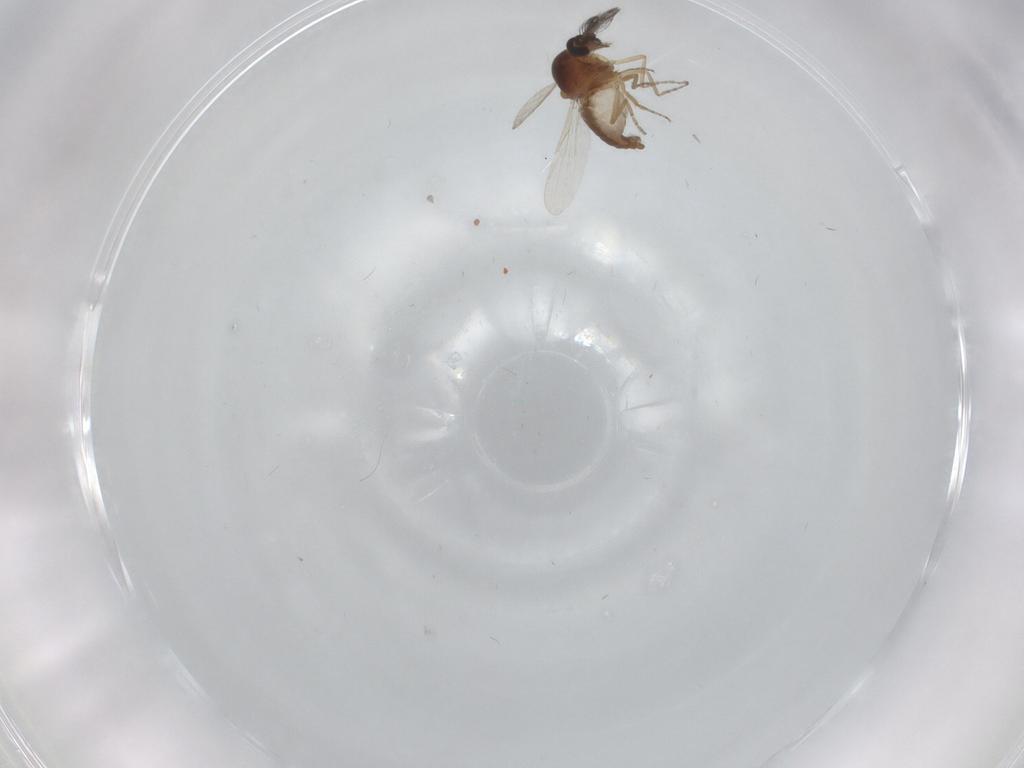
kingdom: Animalia
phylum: Arthropoda
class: Insecta
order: Diptera
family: Ceratopogonidae
